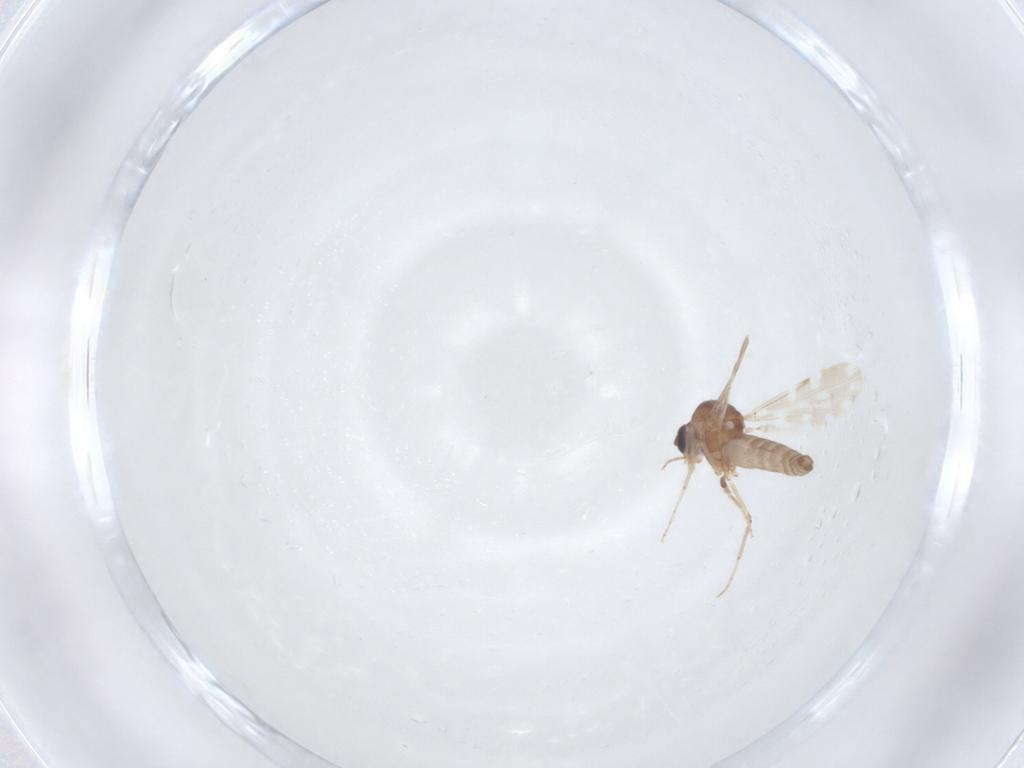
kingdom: Animalia
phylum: Arthropoda
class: Insecta
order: Diptera
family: Ceratopogonidae
